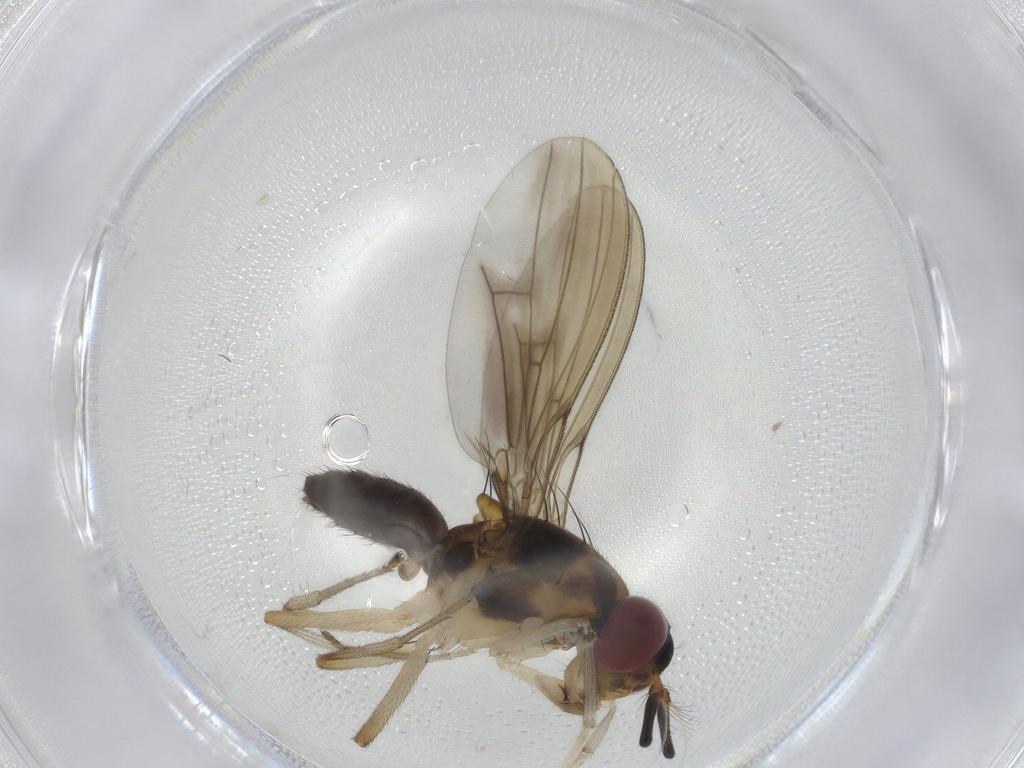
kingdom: Animalia
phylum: Arthropoda
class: Insecta
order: Diptera
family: Lauxaniidae
